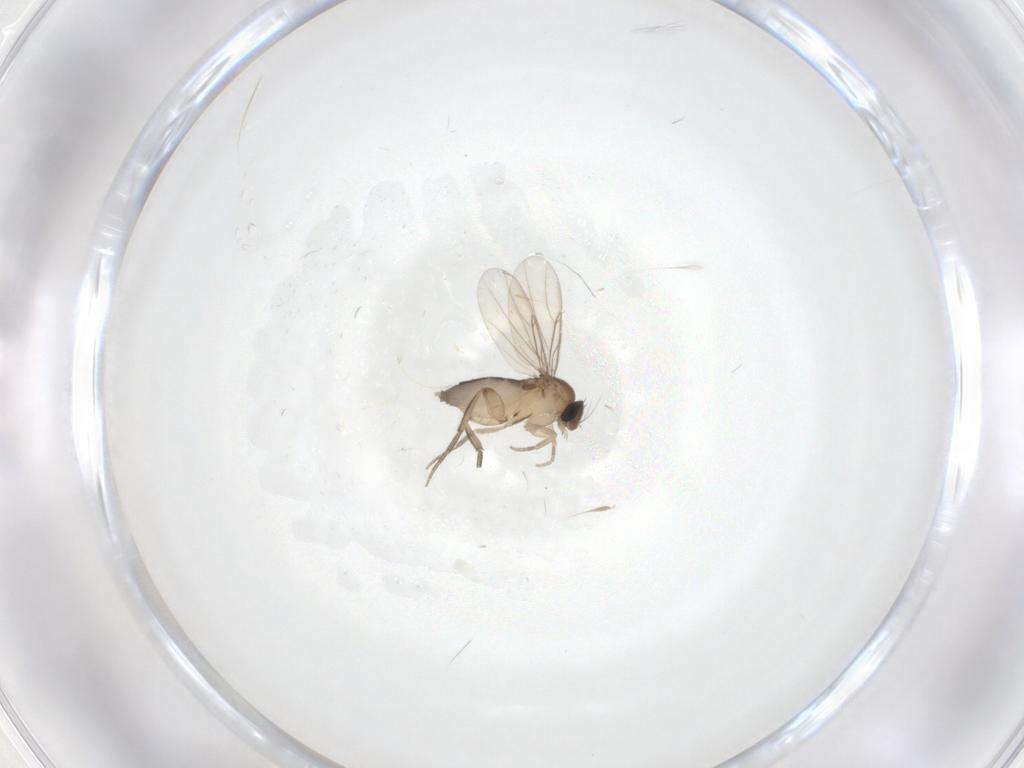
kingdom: Animalia
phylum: Arthropoda
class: Insecta
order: Diptera
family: Phoridae
